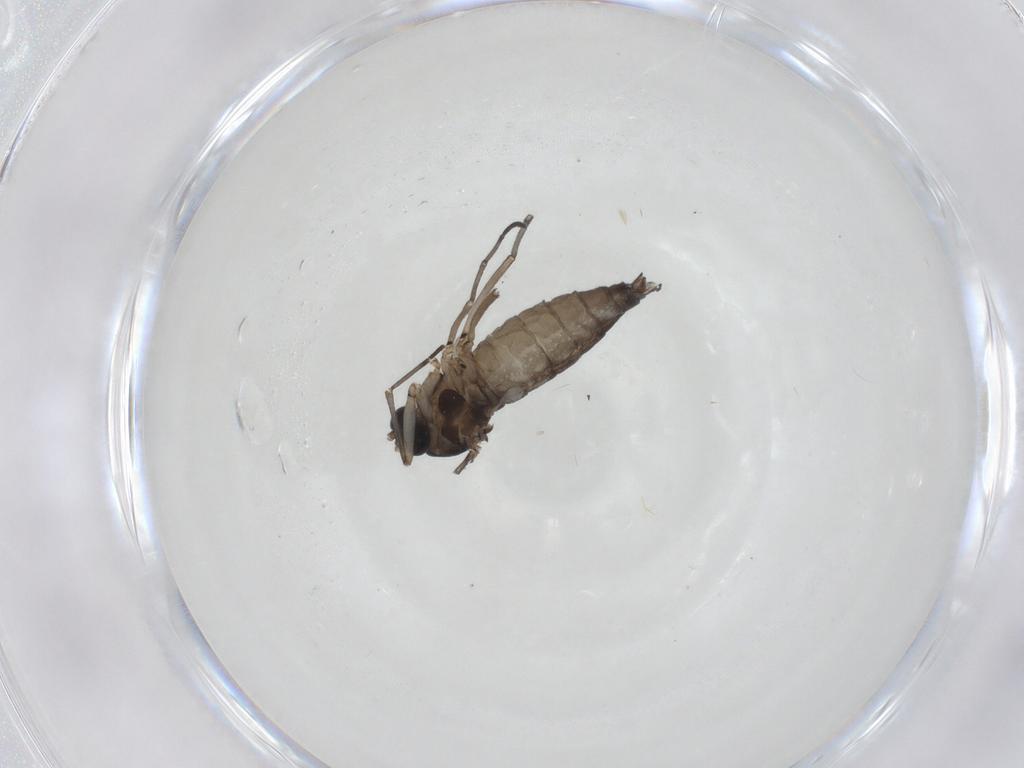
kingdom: Animalia
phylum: Arthropoda
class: Insecta
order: Diptera
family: Sciaridae
